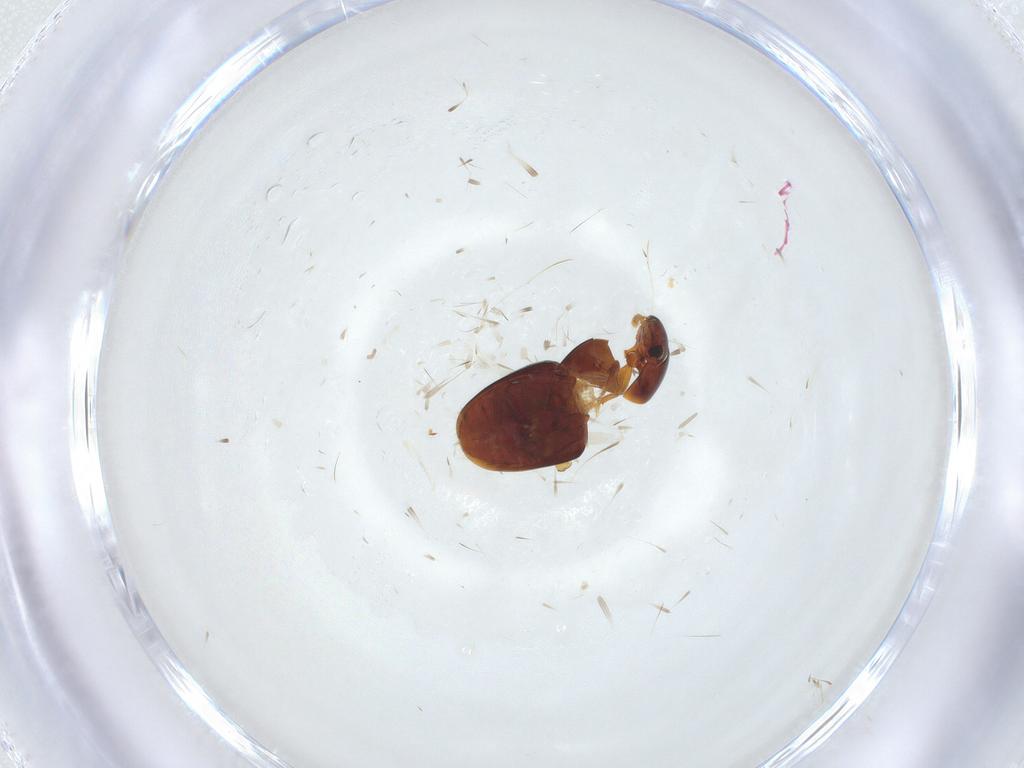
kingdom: Animalia
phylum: Arthropoda
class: Insecta
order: Coleoptera
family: Phalacridae
